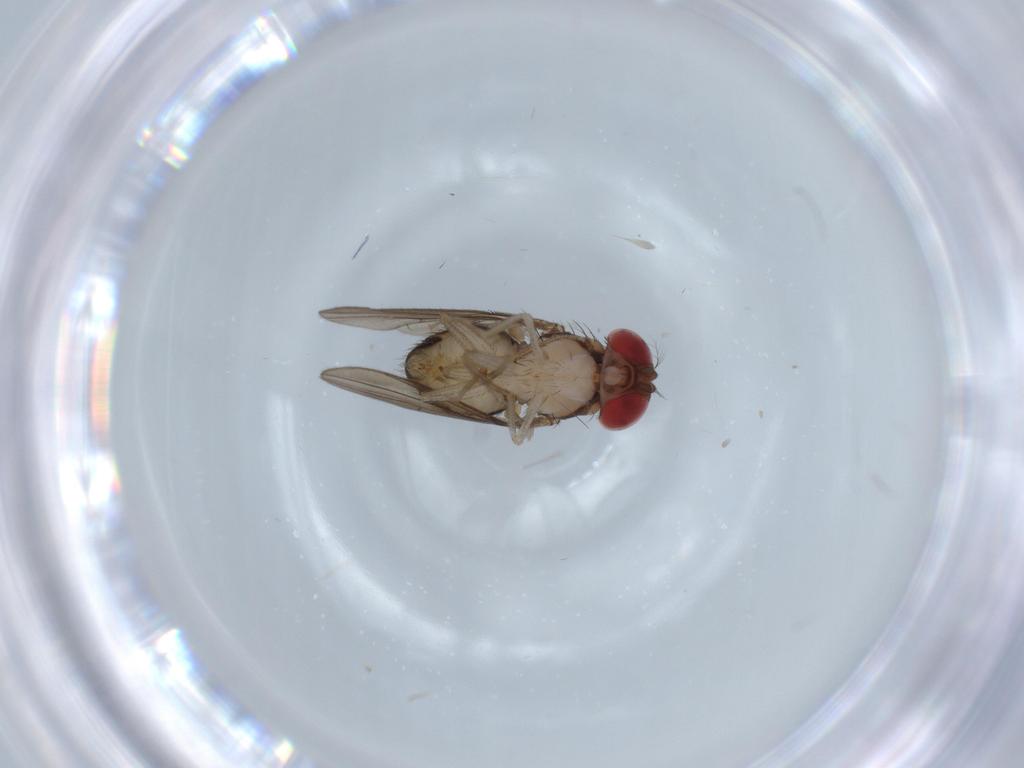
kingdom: Animalia
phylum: Arthropoda
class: Insecta
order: Diptera
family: Drosophilidae
